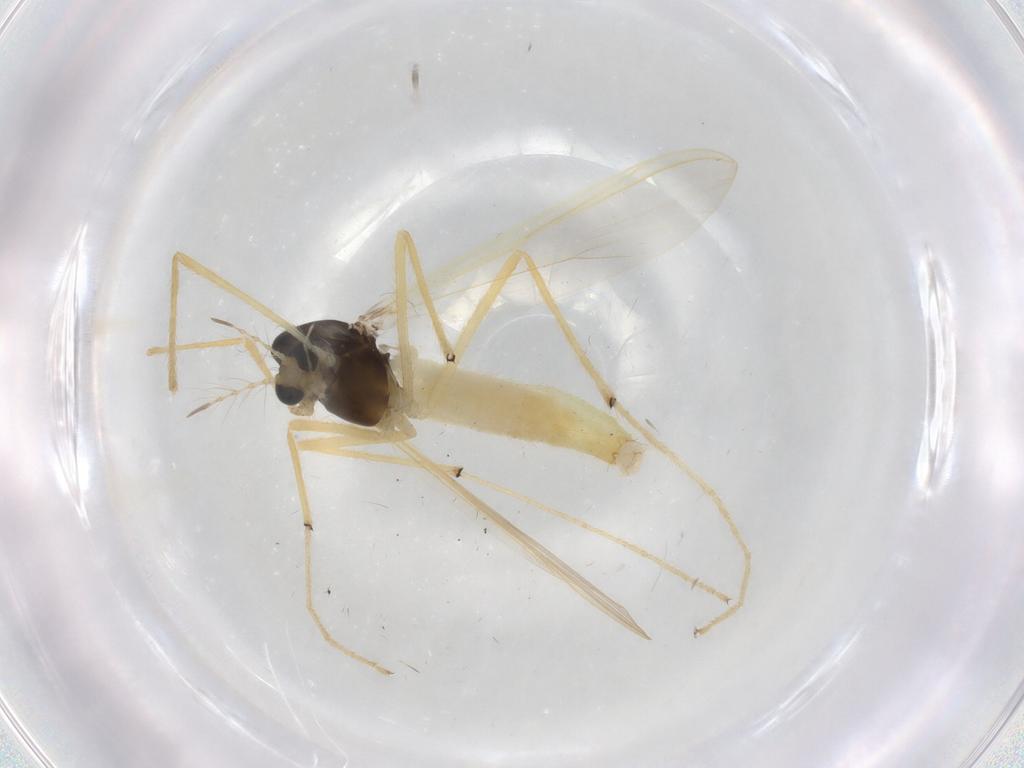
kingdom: Animalia
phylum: Arthropoda
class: Insecta
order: Diptera
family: Chironomidae
